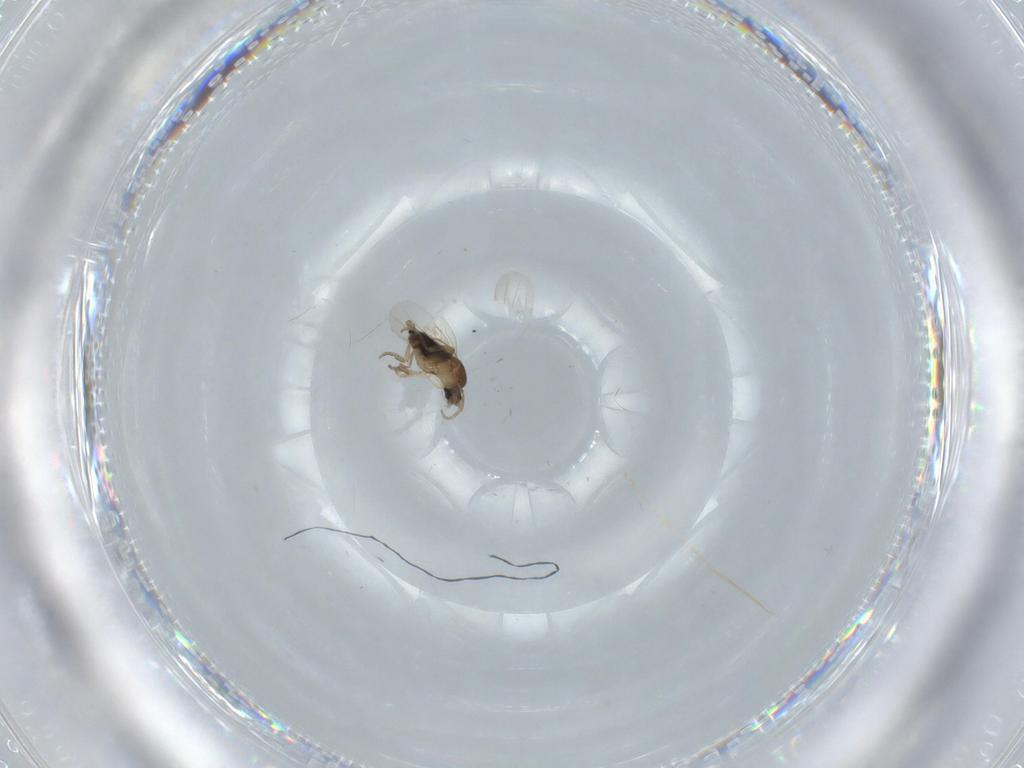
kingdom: Animalia
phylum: Arthropoda
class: Insecta
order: Diptera
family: Phoridae
